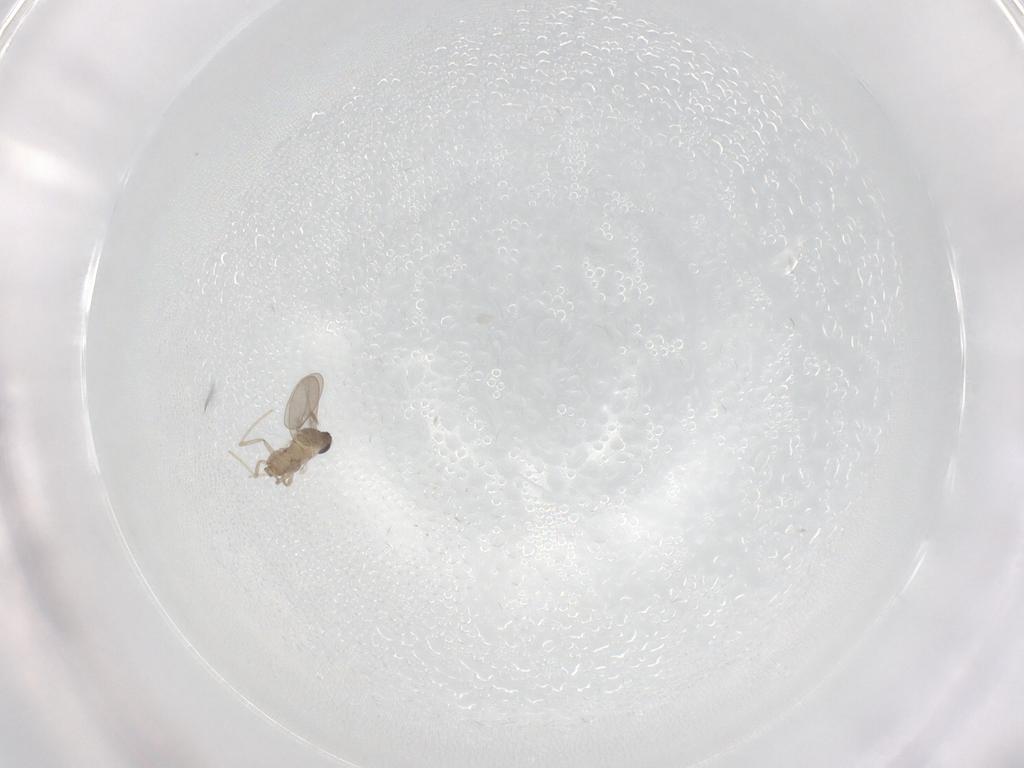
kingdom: Animalia
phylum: Arthropoda
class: Insecta
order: Diptera
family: Cecidomyiidae
